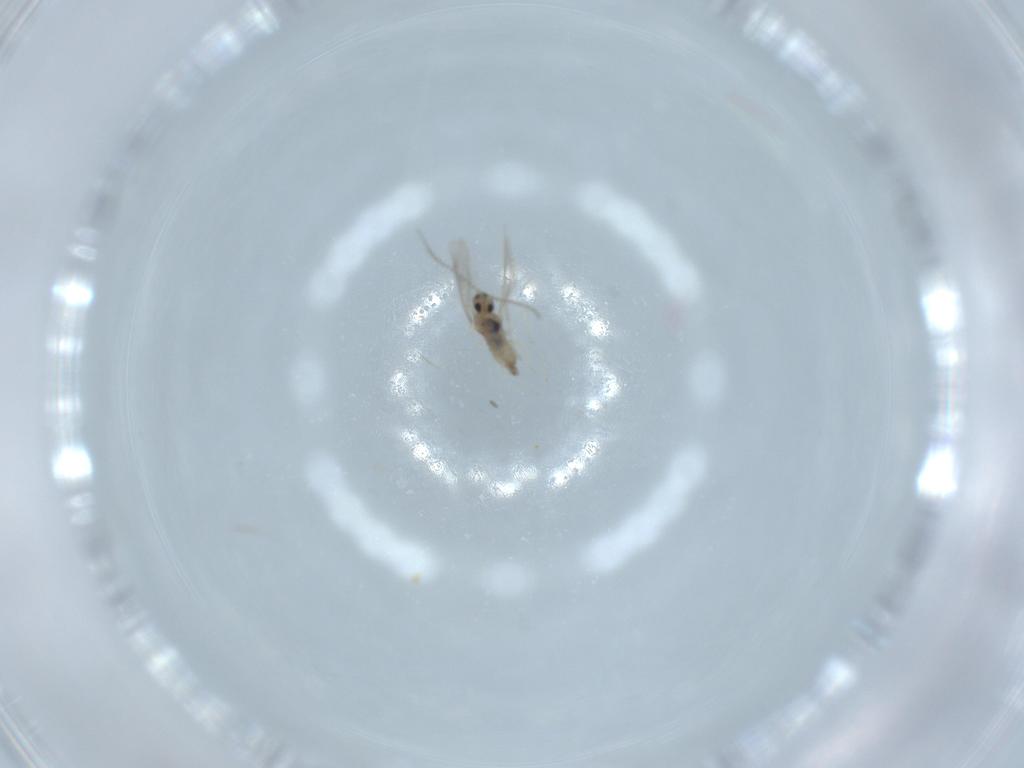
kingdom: Animalia
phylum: Arthropoda
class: Insecta
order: Diptera
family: Cecidomyiidae
